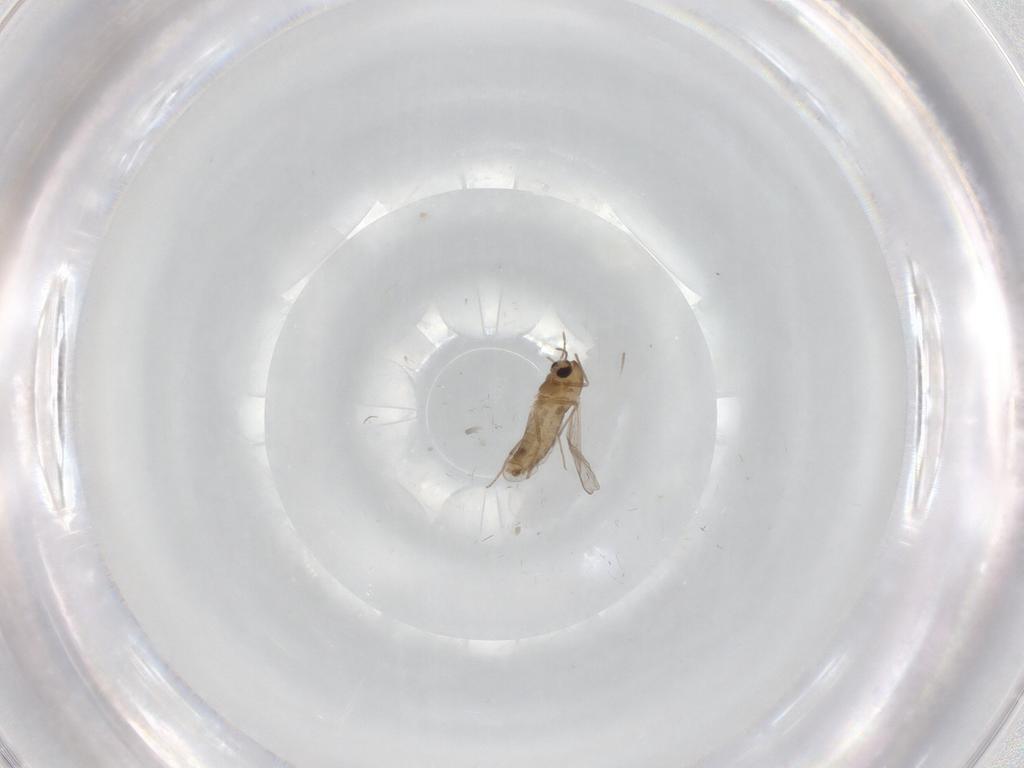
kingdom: Animalia
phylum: Arthropoda
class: Insecta
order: Diptera
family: Chironomidae
